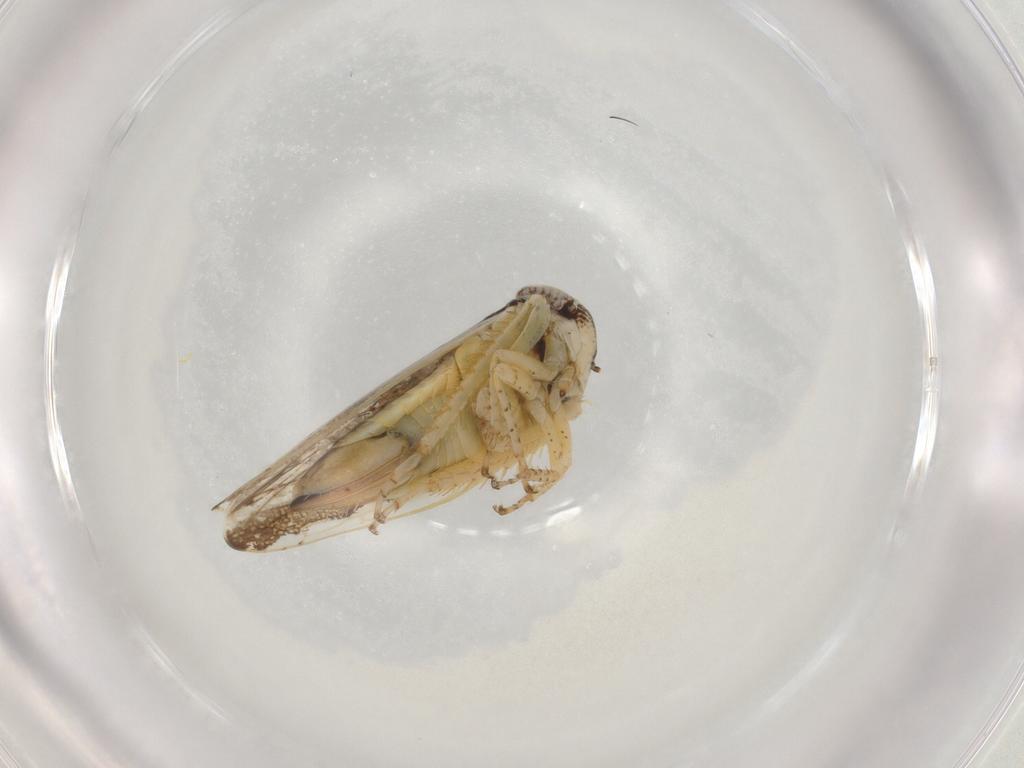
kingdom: Animalia
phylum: Arthropoda
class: Insecta
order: Hemiptera
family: Cicadellidae
